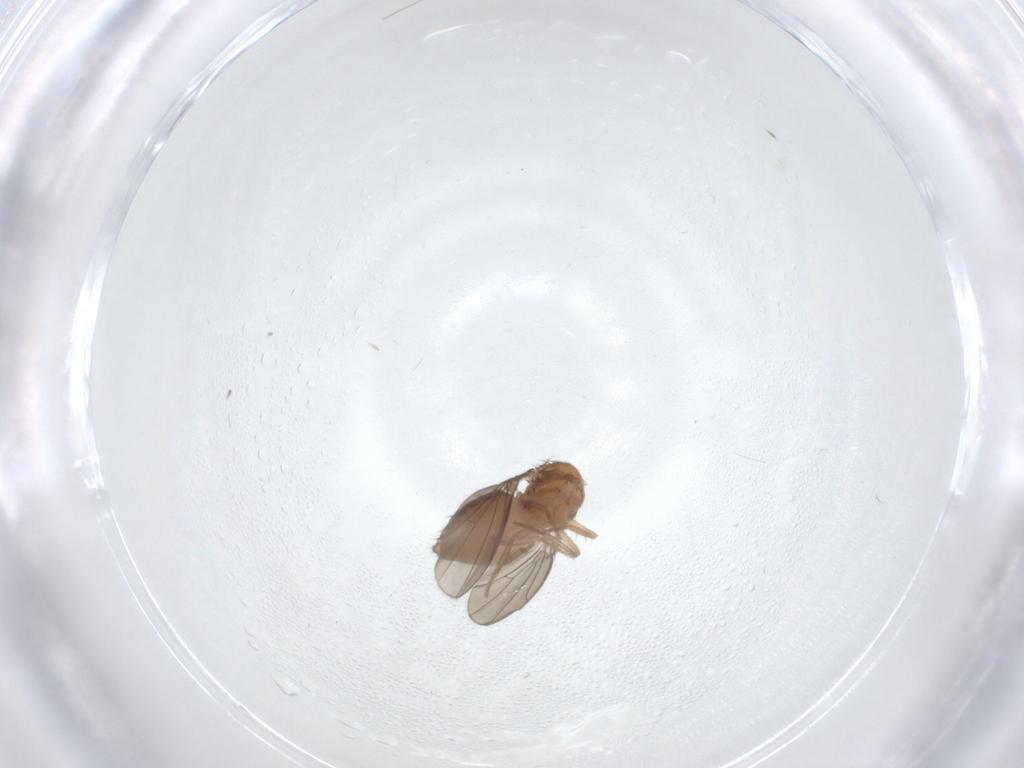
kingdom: Animalia
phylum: Arthropoda
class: Insecta
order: Diptera
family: Drosophilidae
